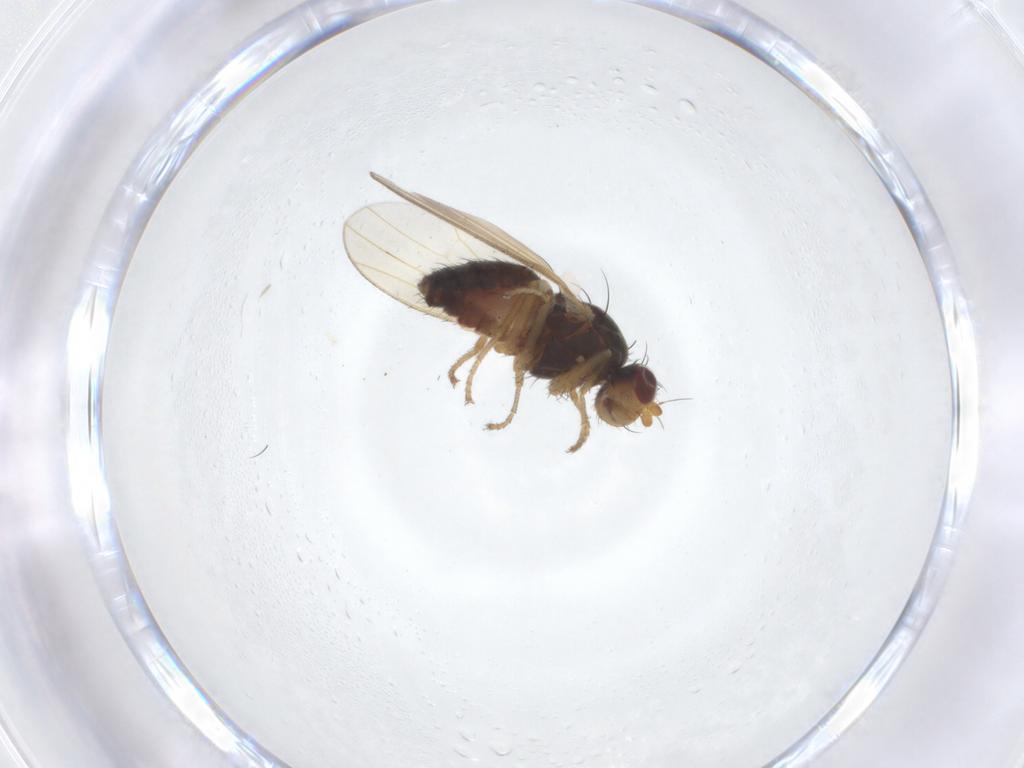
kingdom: Animalia
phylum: Arthropoda
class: Insecta
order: Diptera
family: Heleomyzidae
